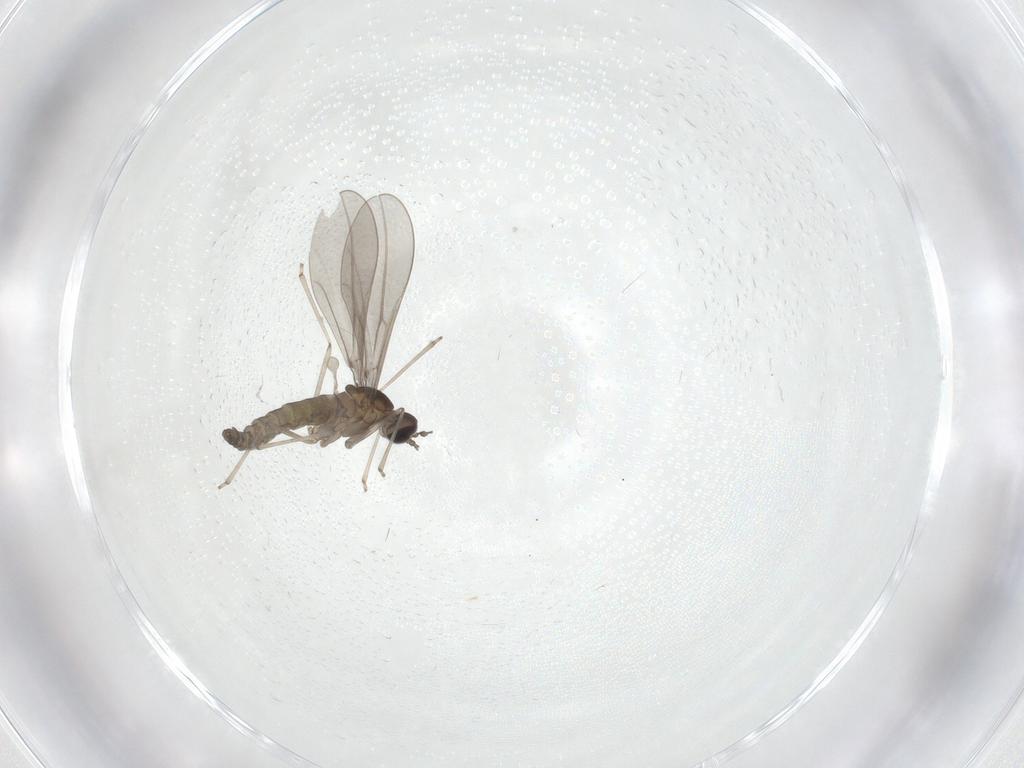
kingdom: Animalia
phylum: Arthropoda
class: Insecta
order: Diptera
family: Cecidomyiidae
